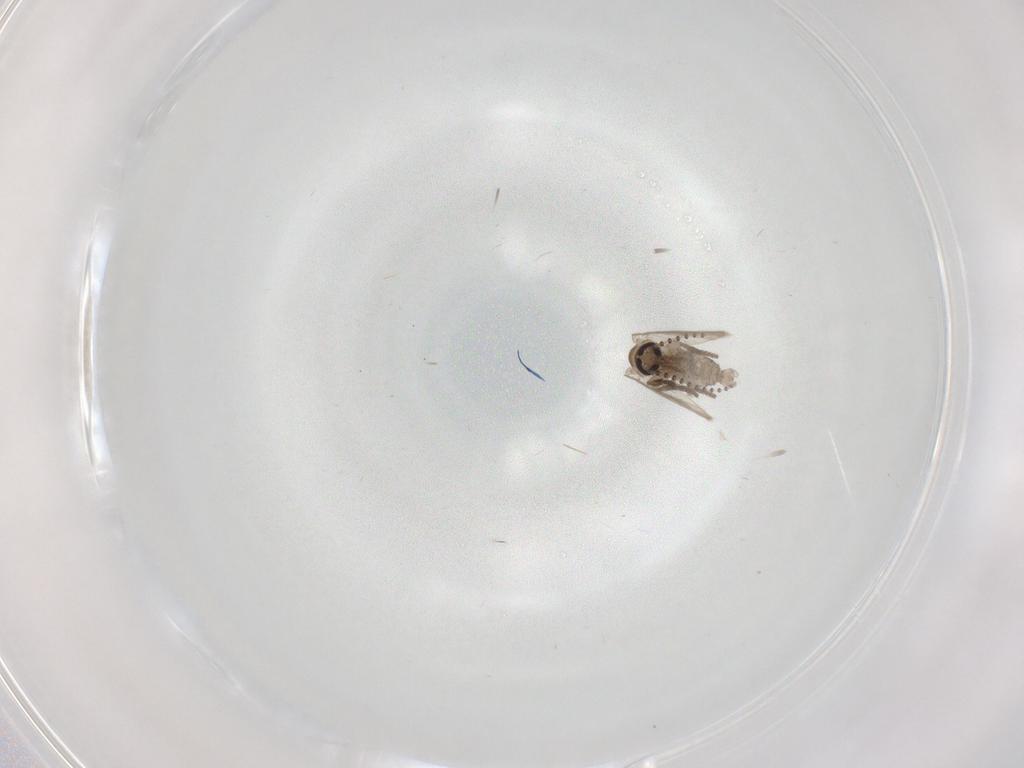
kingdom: Animalia
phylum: Arthropoda
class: Insecta
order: Diptera
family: Psychodidae
